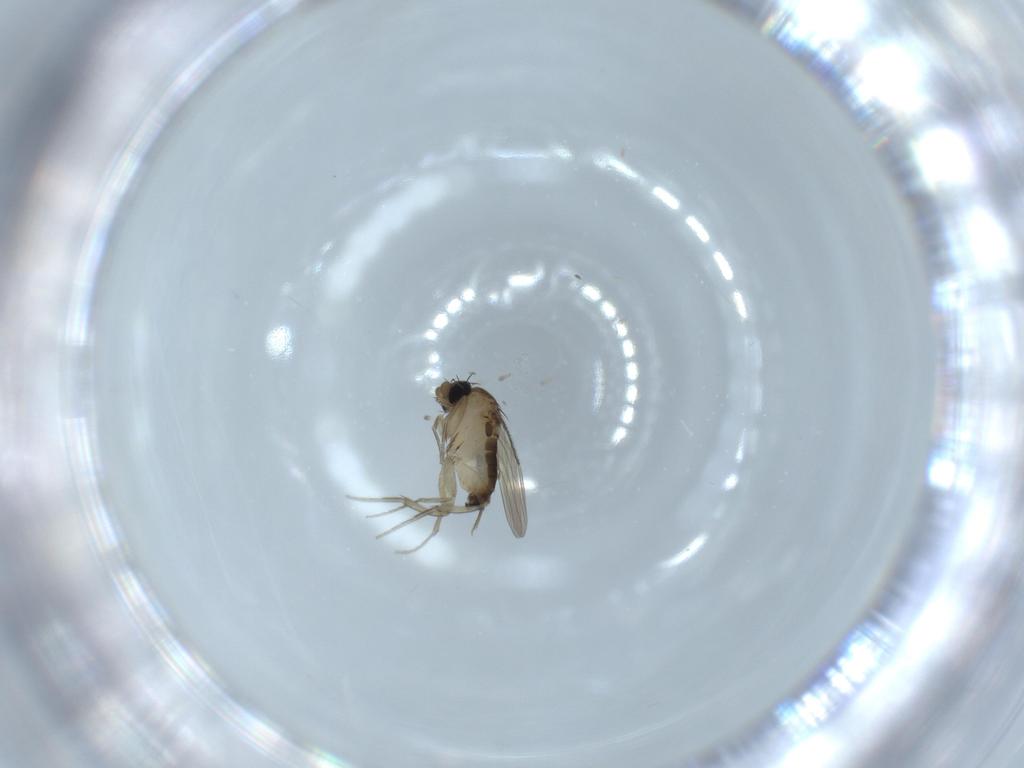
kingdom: Animalia
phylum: Arthropoda
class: Insecta
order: Diptera
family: Phoridae
